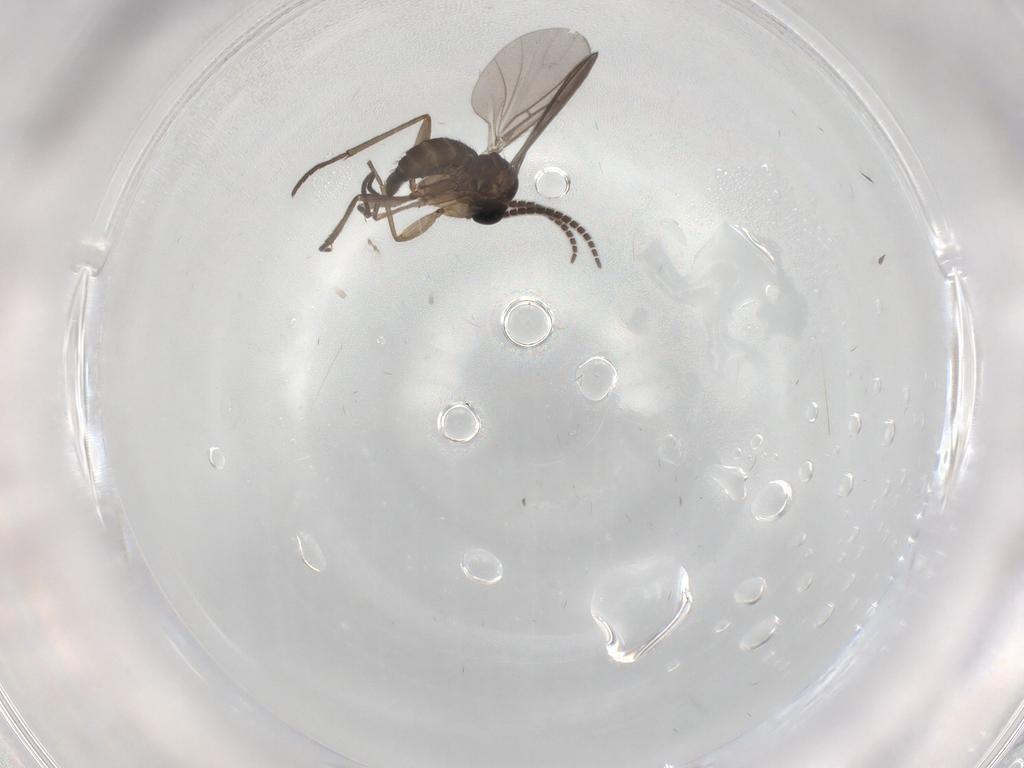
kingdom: Animalia
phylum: Arthropoda
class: Insecta
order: Diptera
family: Sciaridae
